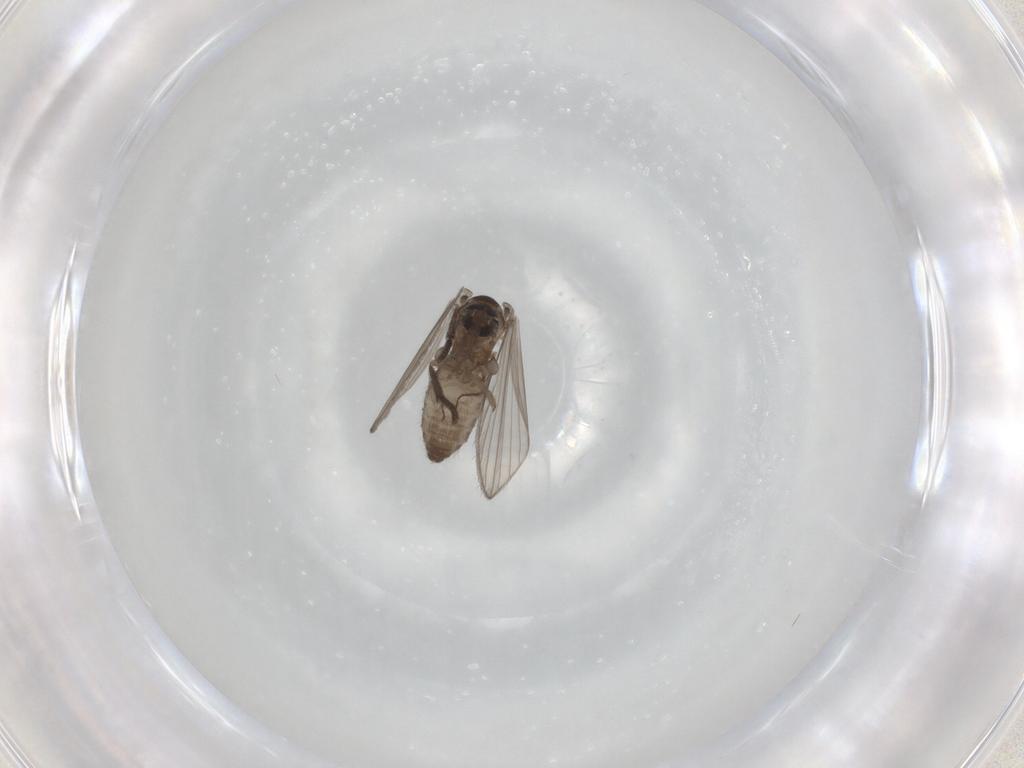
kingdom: Animalia
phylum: Arthropoda
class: Insecta
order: Diptera
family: Psychodidae
